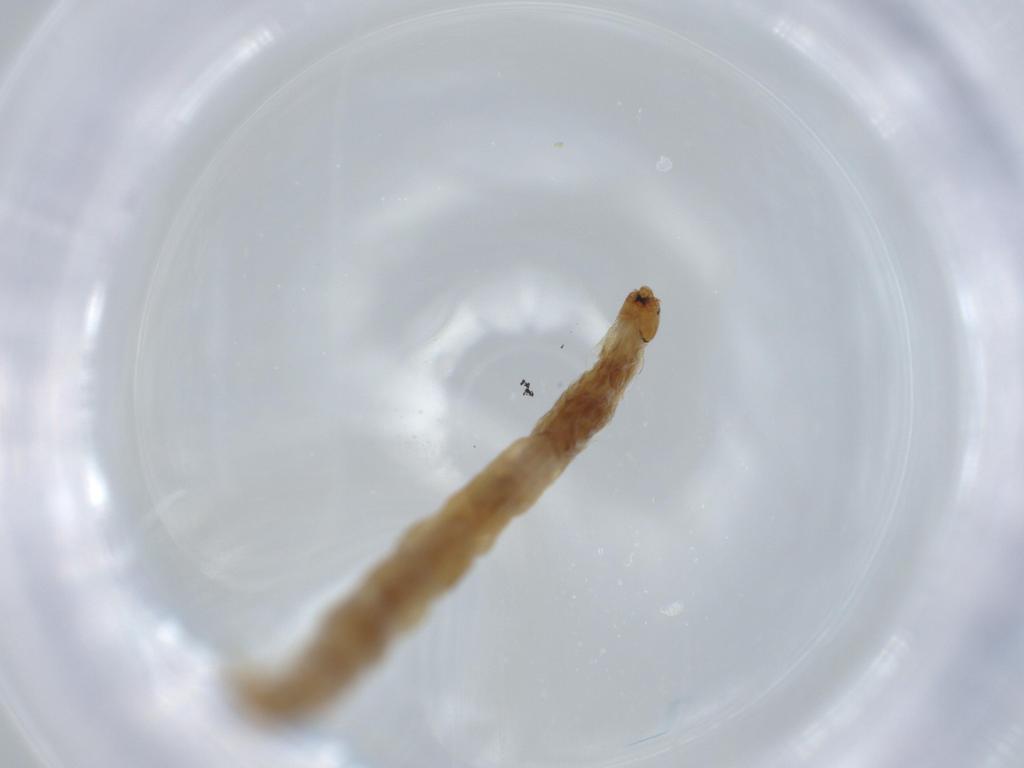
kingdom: Animalia
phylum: Arthropoda
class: Insecta
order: Diptera
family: Chironomidae
